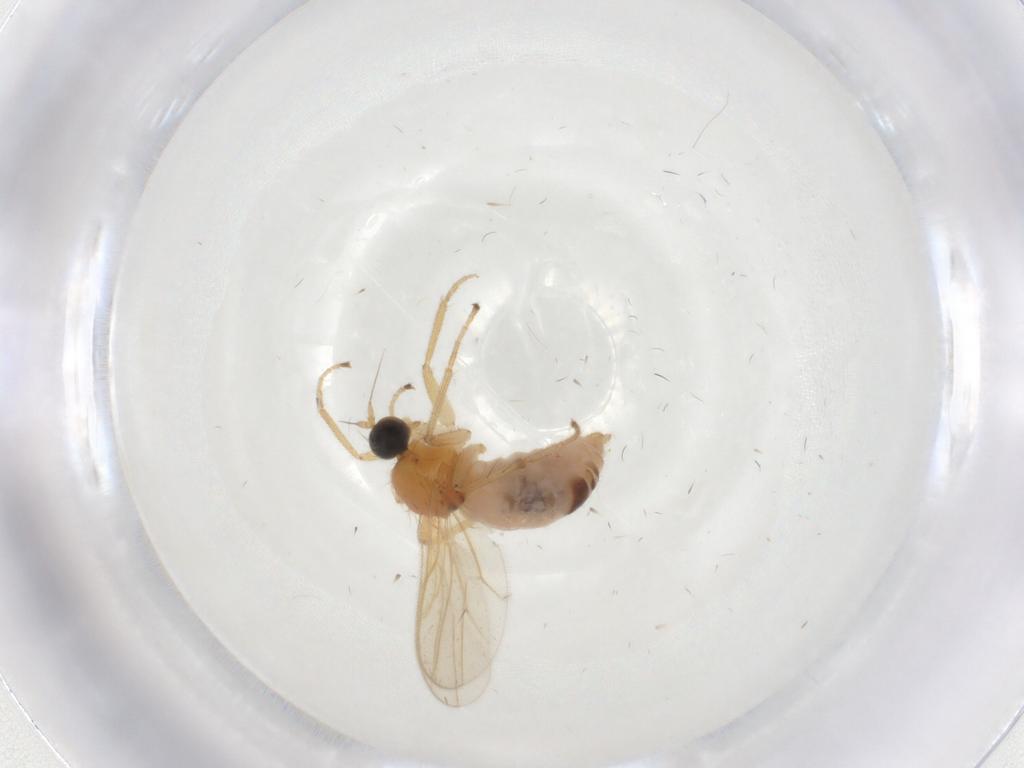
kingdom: Animalia
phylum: Arthropoda
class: Insecta
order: Diptera
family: Hybotidae
